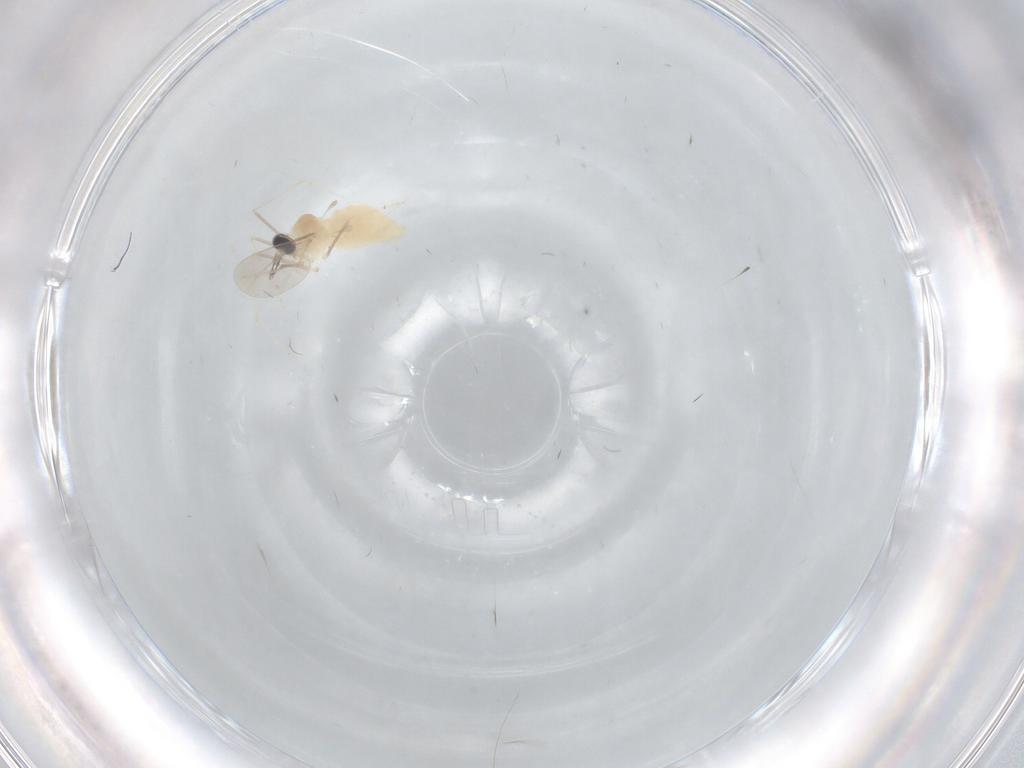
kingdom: Animalia
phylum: Arthropoda
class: Insecta
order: Diptera
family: Cecidomyiidae
